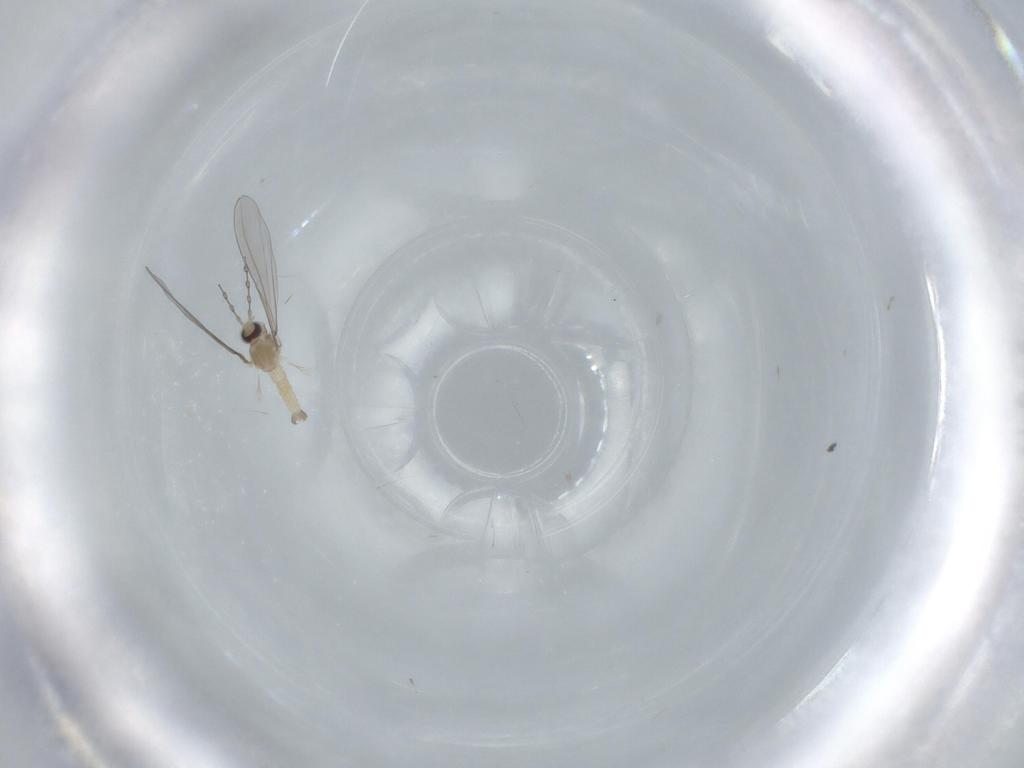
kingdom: Animalia
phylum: Arthropoda
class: Insecta
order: Diptera
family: Cecidomyiidae
